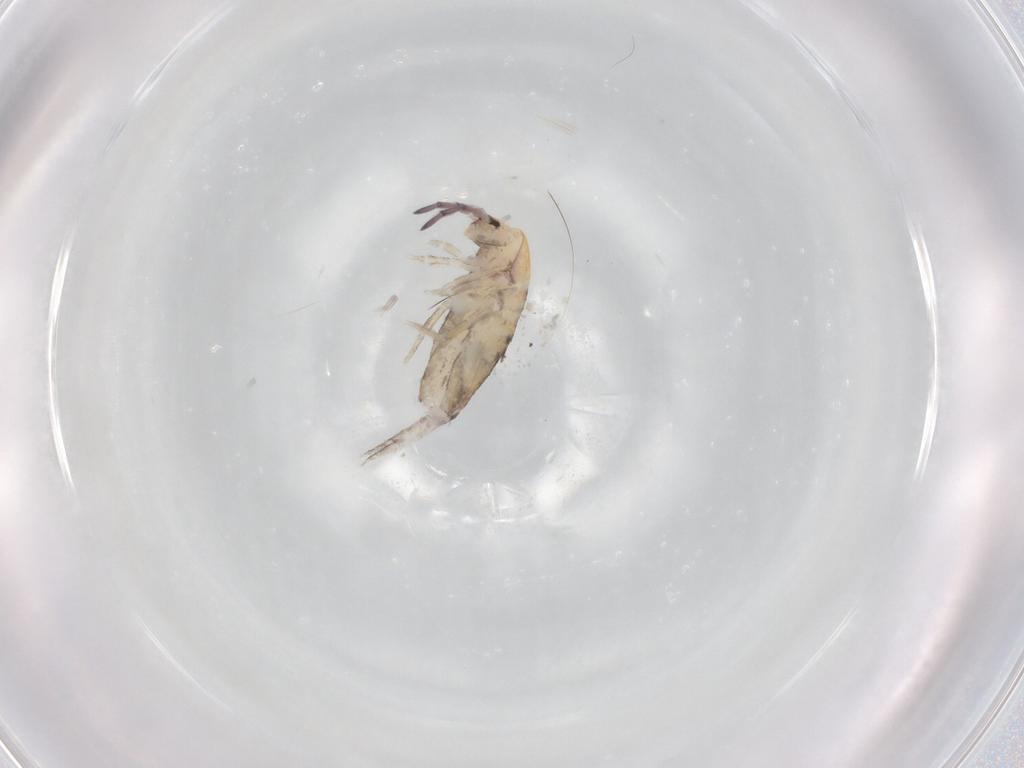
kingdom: Animalia
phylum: Arthropoda
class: Collembola
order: Entomobryomorpha
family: Entomobryidae
